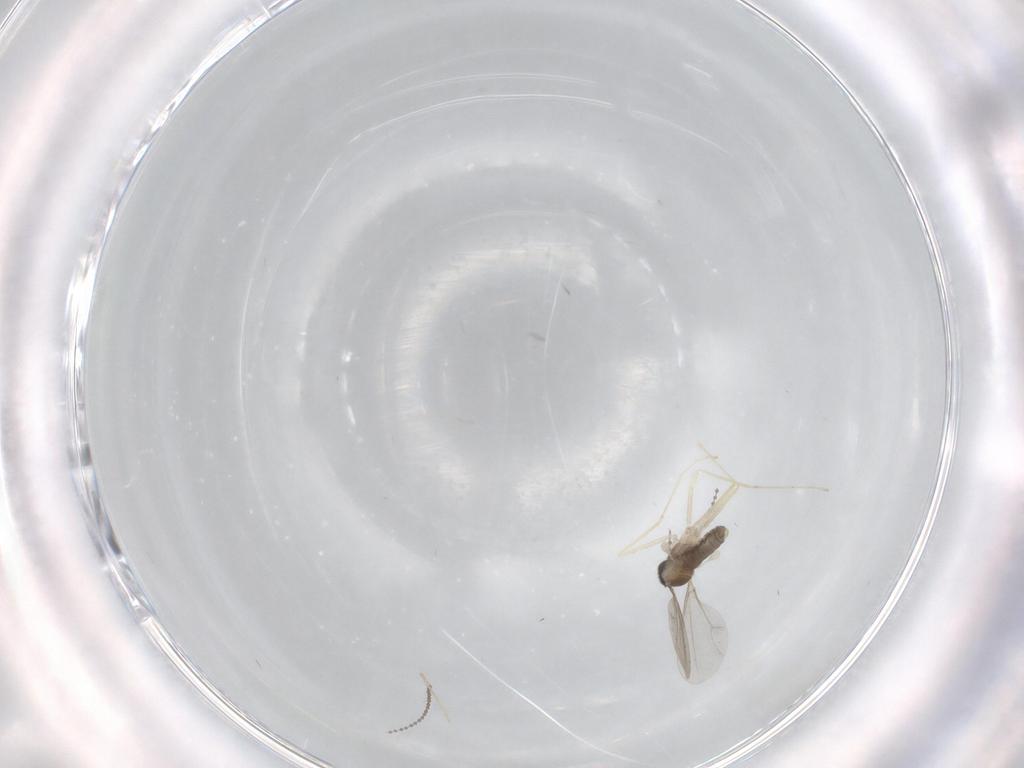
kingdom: Animalia
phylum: Arthropoda
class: Insecta
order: Diptera
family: Cecidomyiidae
